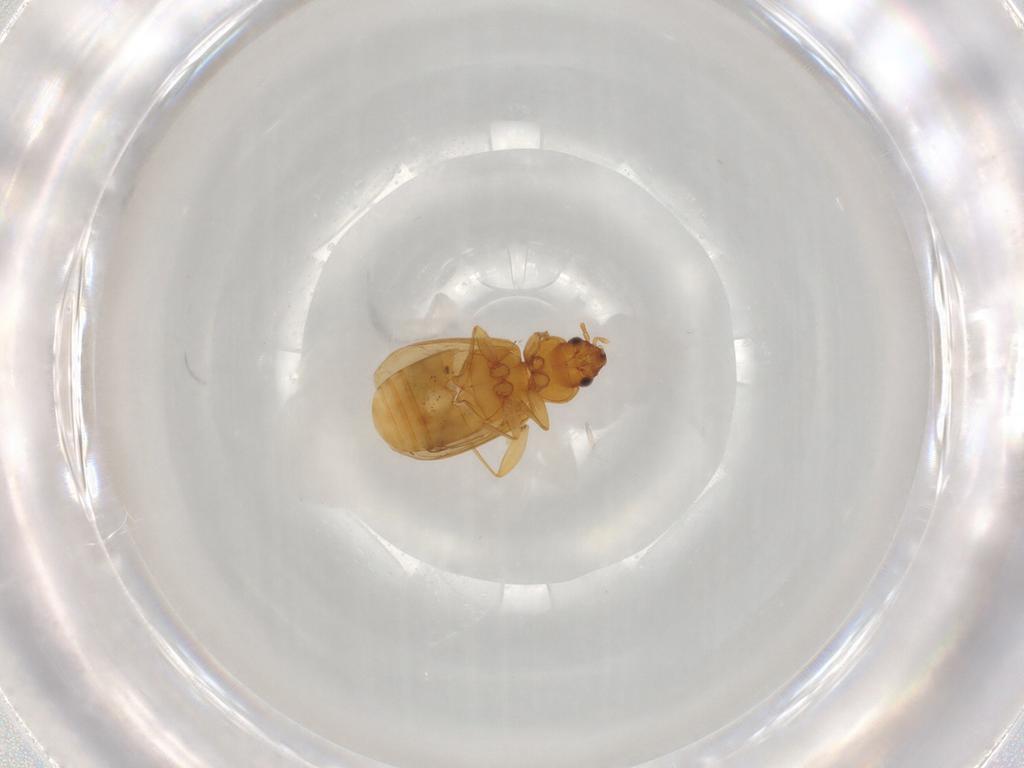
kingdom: Animalia
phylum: Arthropoda
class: Insecta
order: Coleoptera
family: Carabidae
